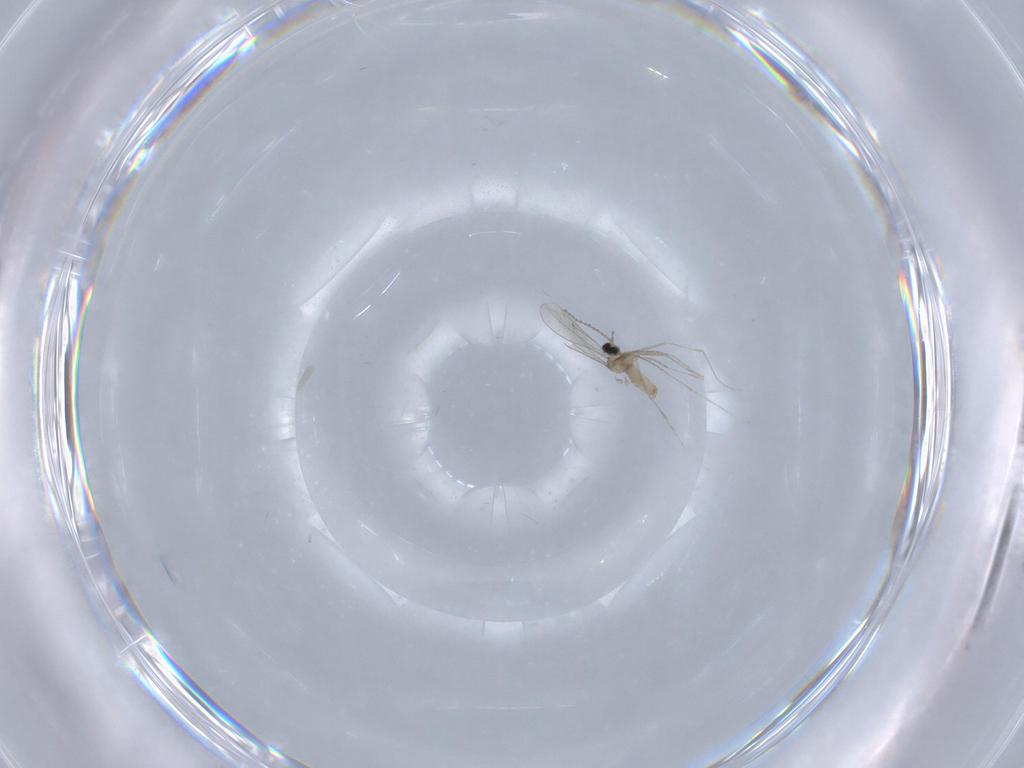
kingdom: Animalia
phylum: Arthropoda
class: Insecta
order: Diptera
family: Cecidomyiidae
